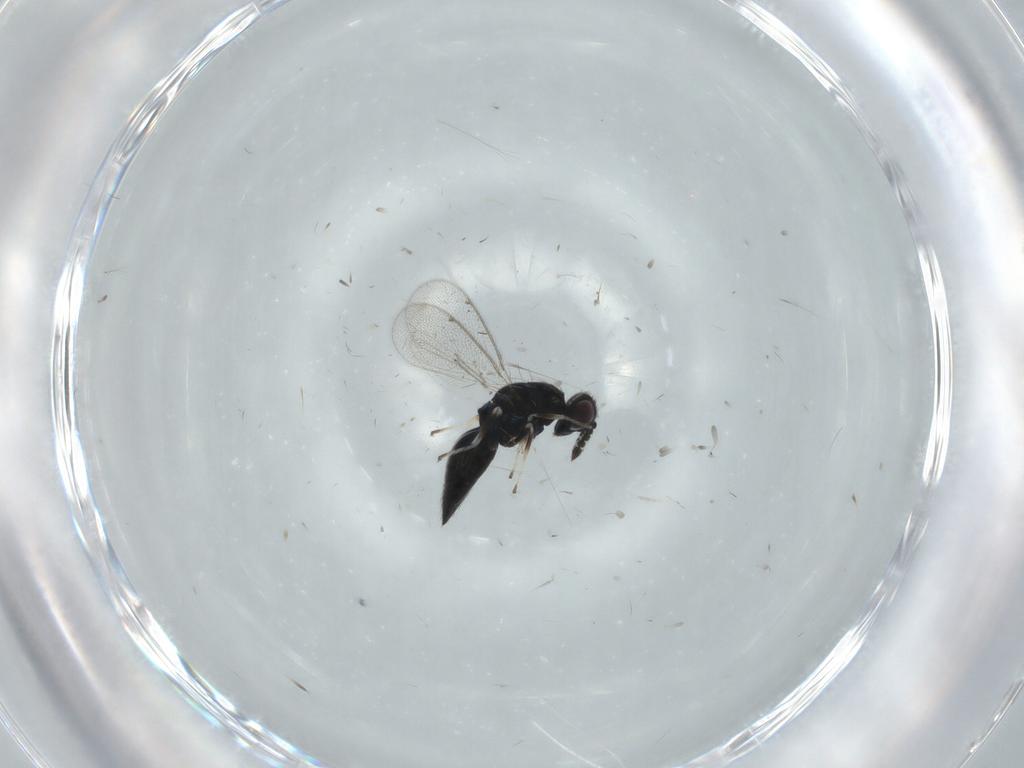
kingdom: Animalia
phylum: Arthropoda
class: Insecta
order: Hymenoptera
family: Eulophidae
